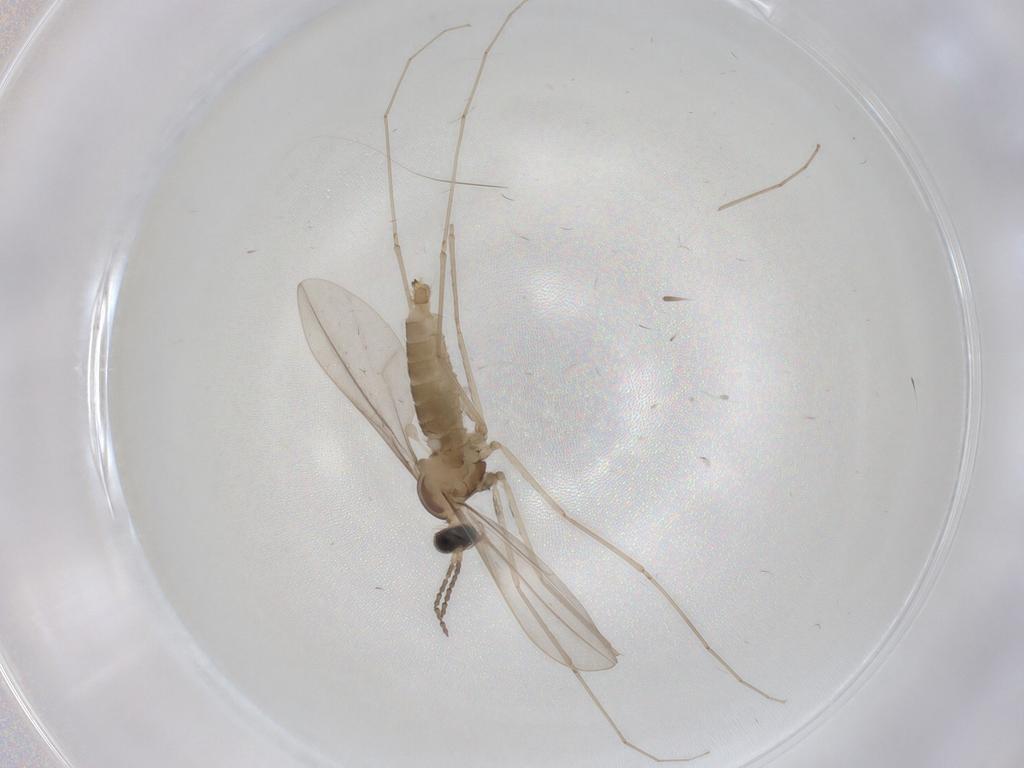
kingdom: Animalia
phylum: Arthropoda
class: Insecta
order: Diptera
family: Cecidomyiidae
